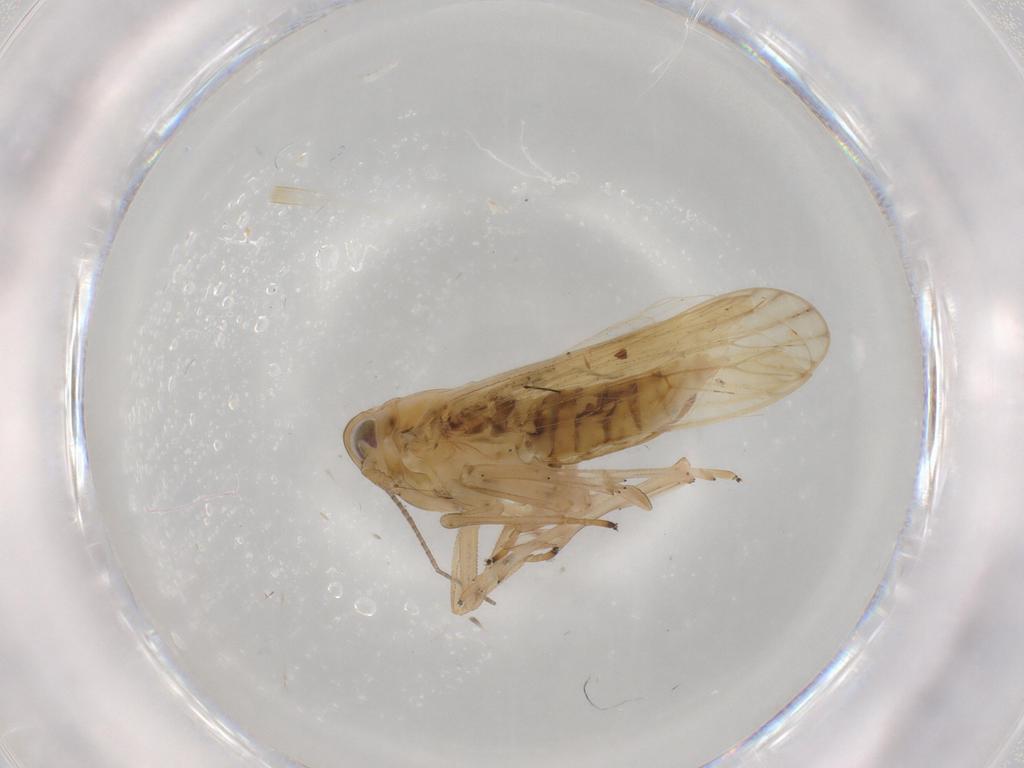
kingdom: Animalia
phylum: Arthropoda
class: Insecta
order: Hemiptera
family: Delphacidae
